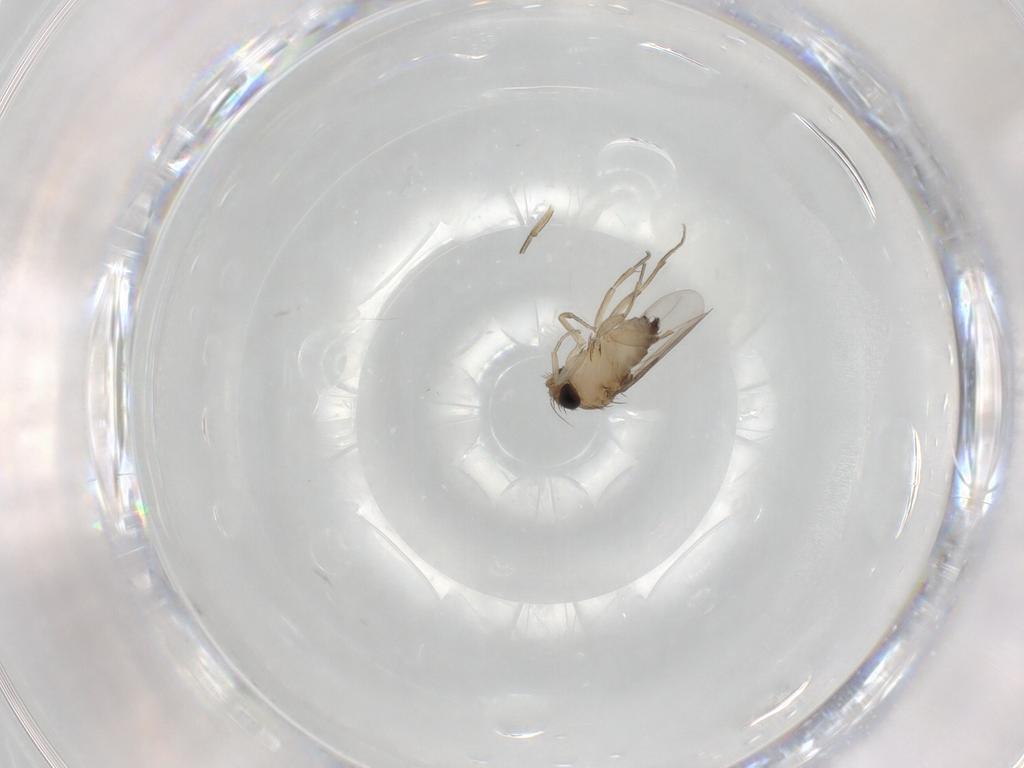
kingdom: Animalia
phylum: Arthropoda
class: Insecta
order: Diptera
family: Phoridae
